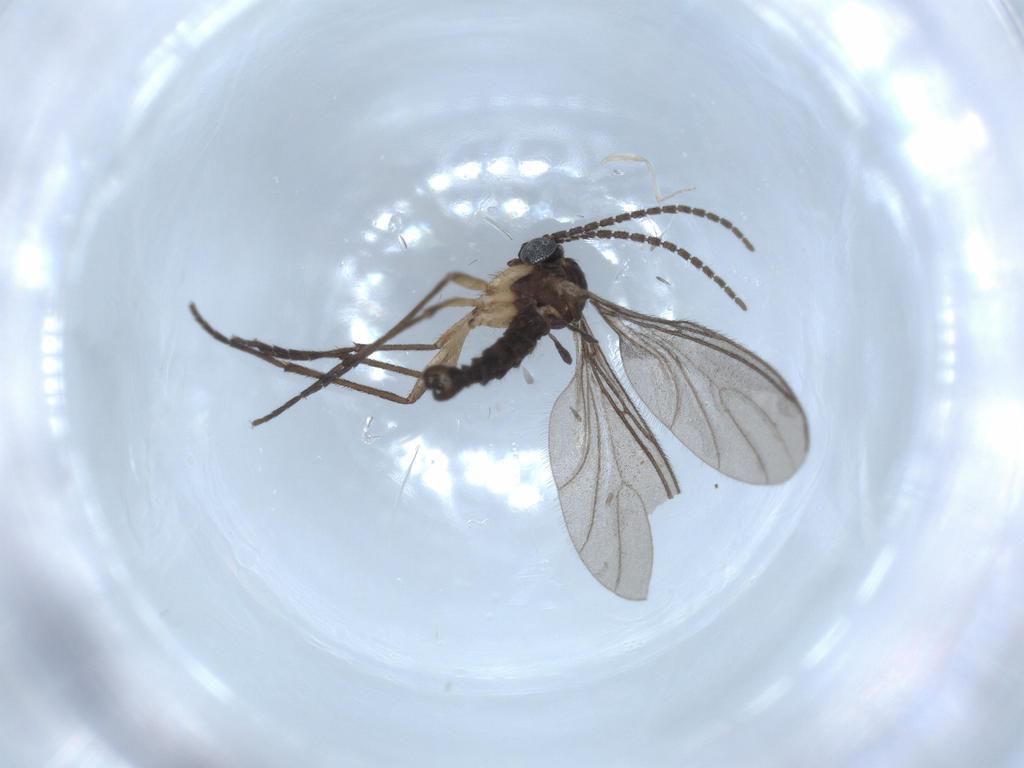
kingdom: Animalia
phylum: Arthropoda
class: Insecta
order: Diptera
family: Sciaridae
